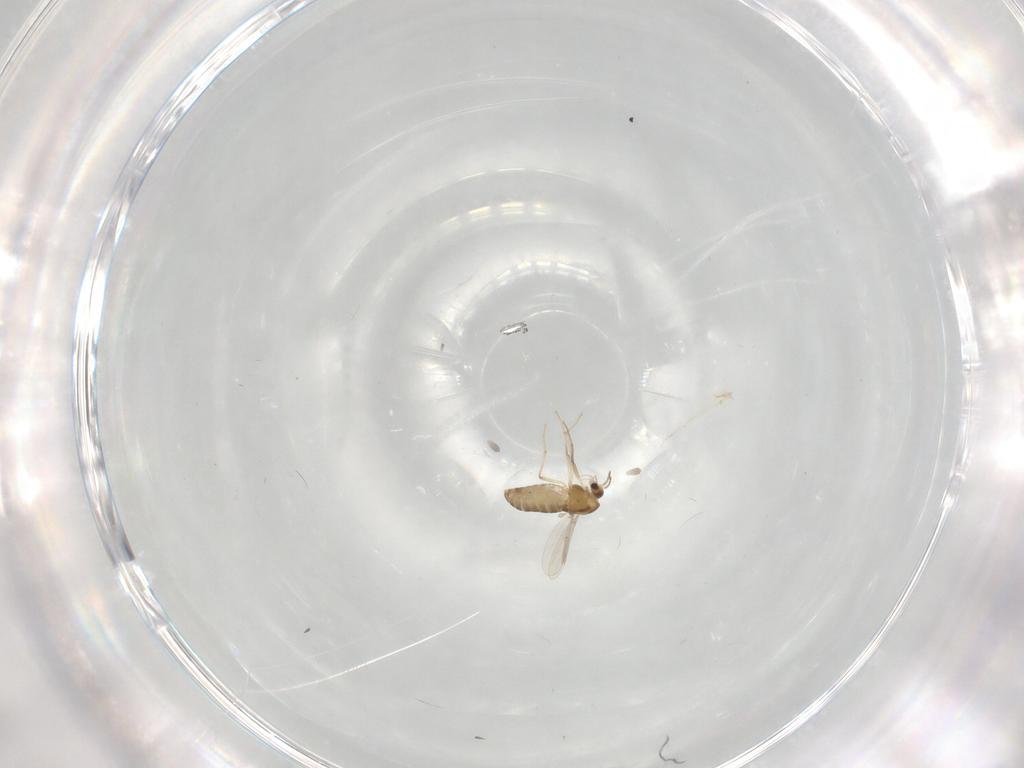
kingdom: Animalia
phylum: Arthropoda
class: Insecta
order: Diptera
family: Chironomidae
